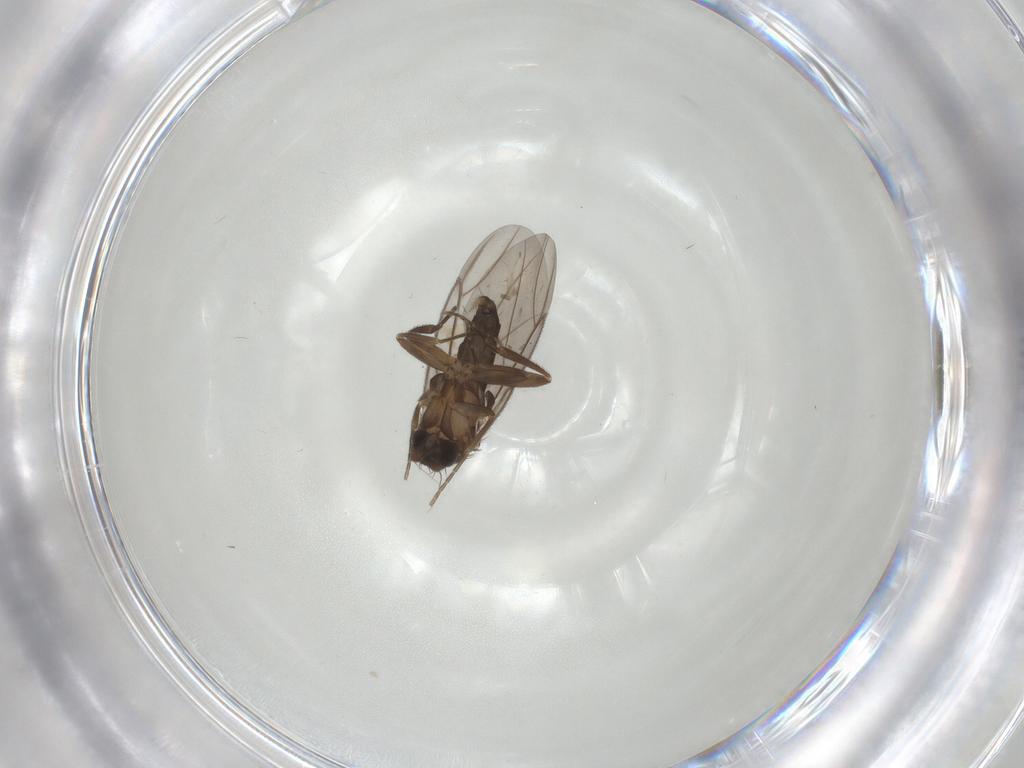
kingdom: Animalia
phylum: Arthropoda
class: Insecta
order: Diptera
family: Cecidomyiidae
